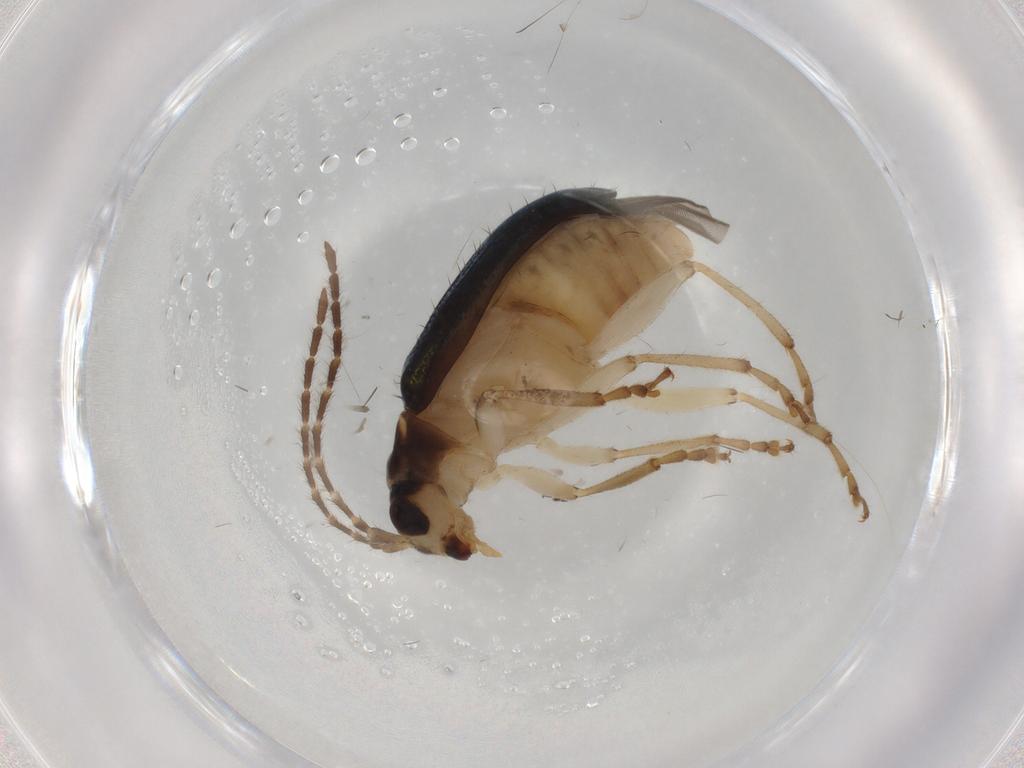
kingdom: Animalia
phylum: Arthropoda
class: Insecta
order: Coleoptera
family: Chrysomelidae
